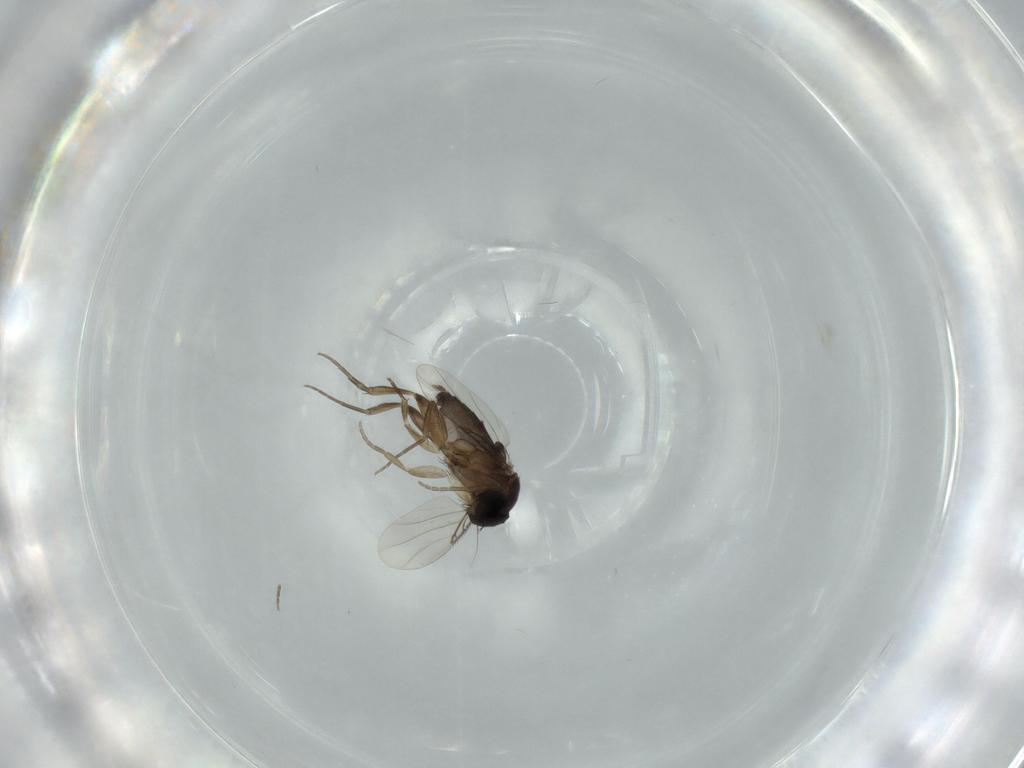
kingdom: Animalia
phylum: Arthropoda
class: Insecta
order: Diptera
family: Phoridae
